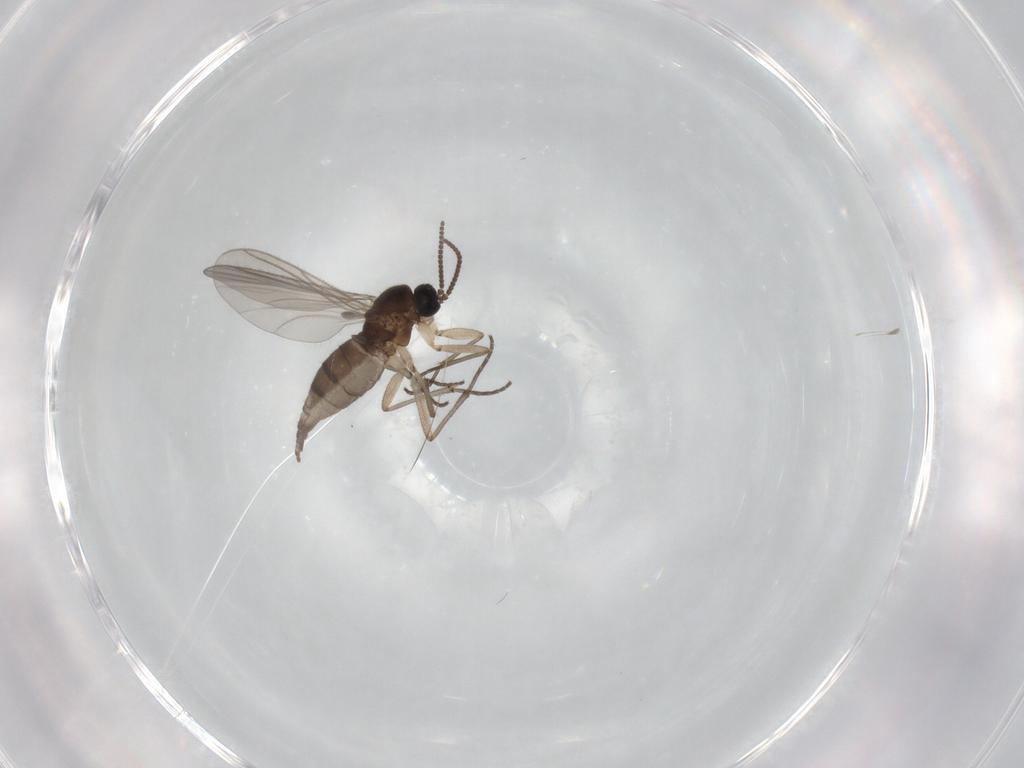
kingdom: Animalia
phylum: Arthropoda
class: Insecta
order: Diptera
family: Sciaridae
